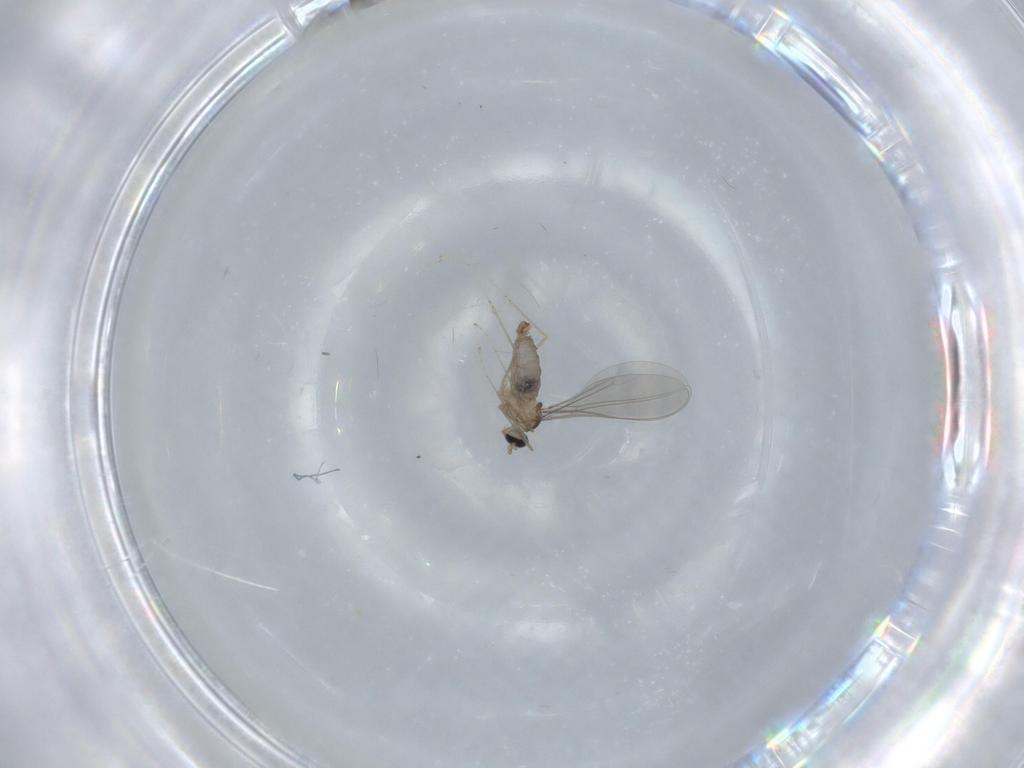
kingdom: Animalia
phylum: Arthropoda
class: Insecta
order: Diptera
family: Cecidomyiidae
